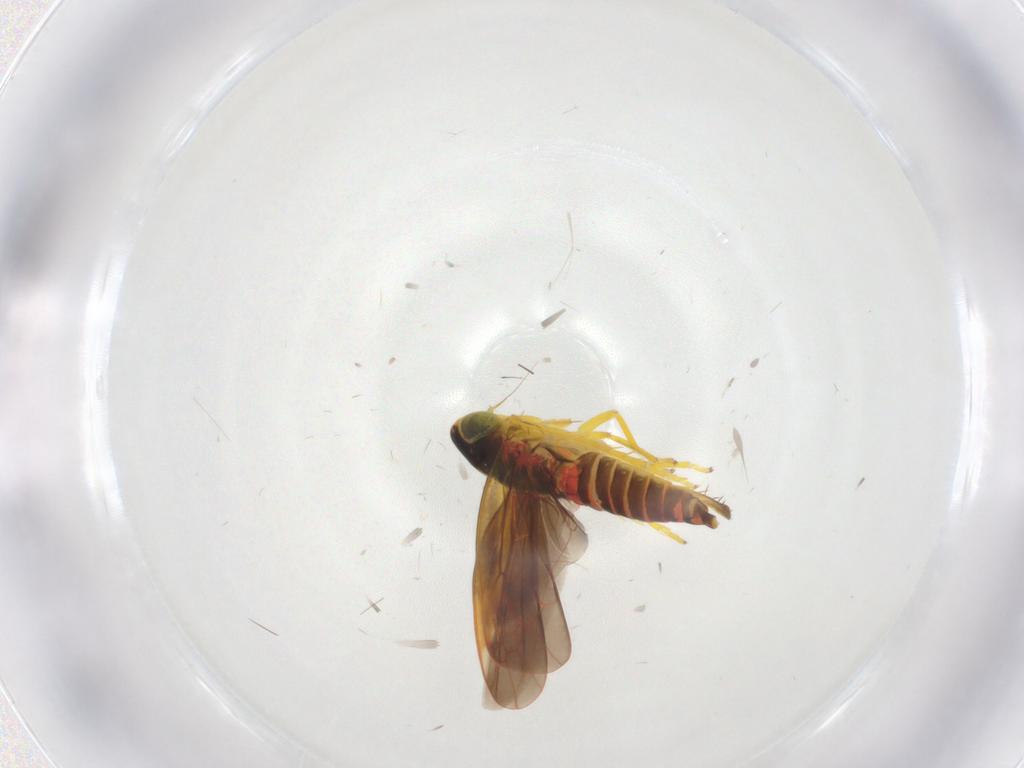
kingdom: Animalia
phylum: Arthropoda
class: Insecta
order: Hemiptera
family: Cicadellidae
